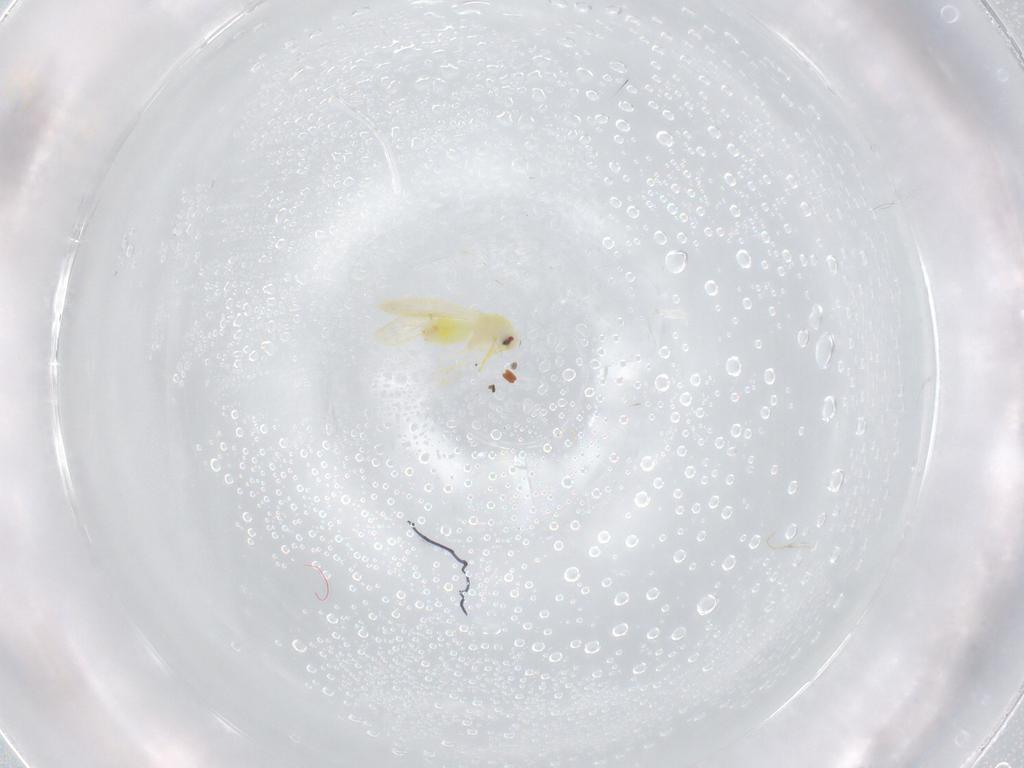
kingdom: Animalia
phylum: Arthropoda
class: Insecta
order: Hemiptera
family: Aleyrodidae
